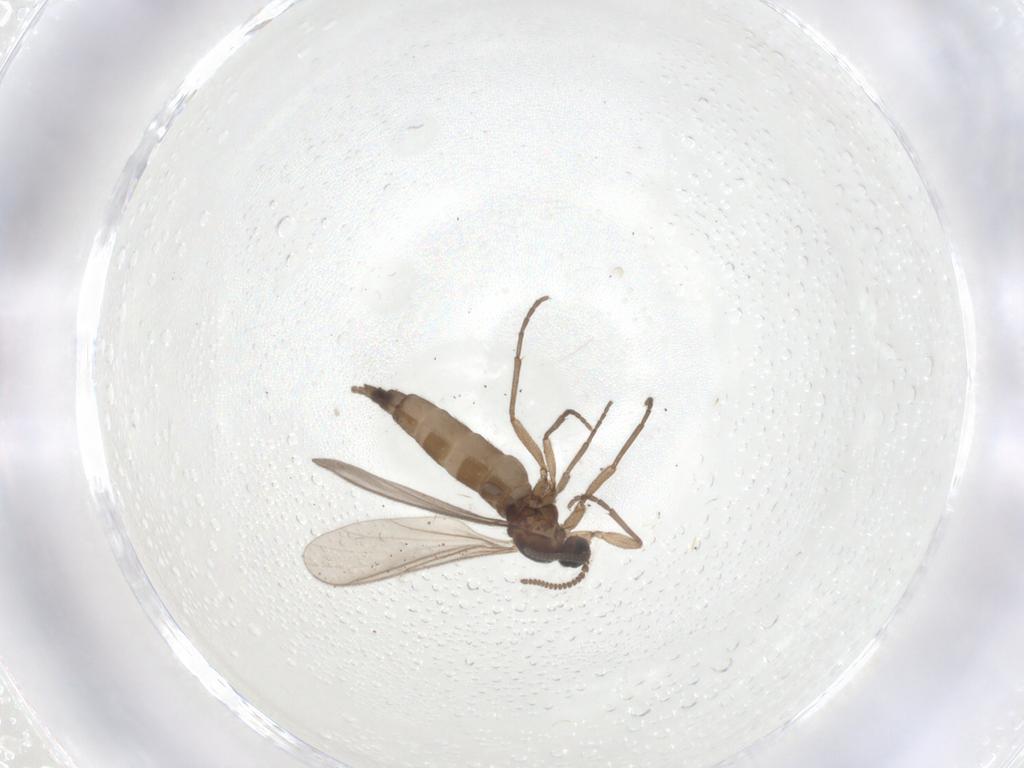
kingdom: Animalia
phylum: Arthropoda
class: Insecta
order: Diptera
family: Sciaridae
